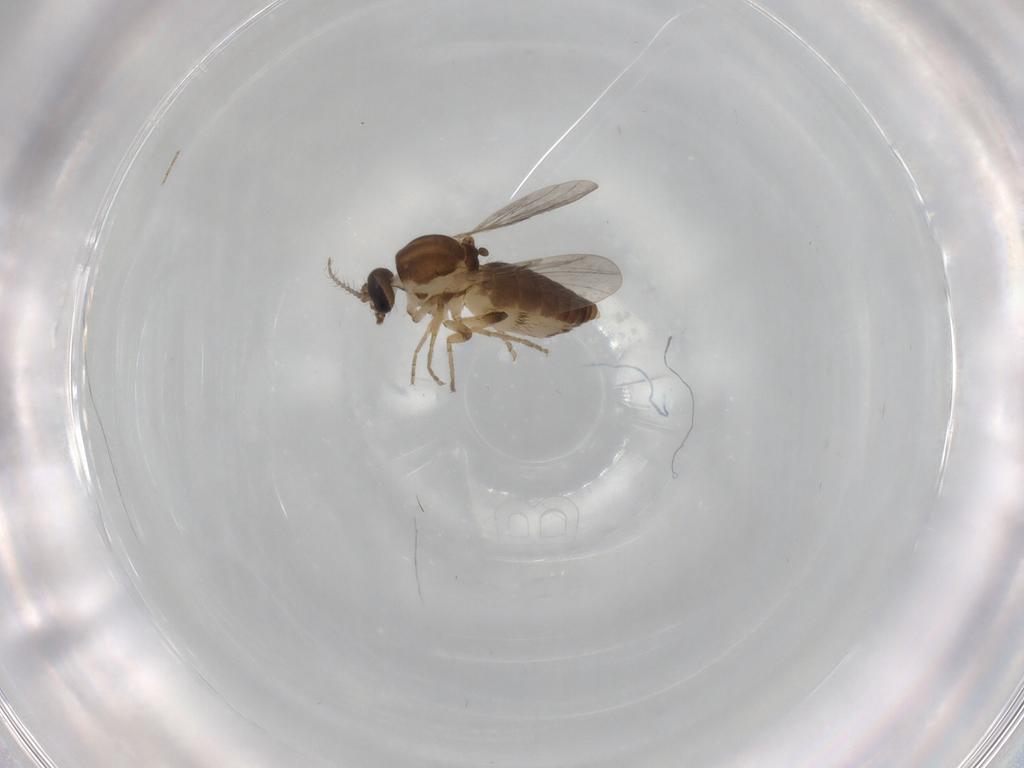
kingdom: Animalia
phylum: Arthropoda
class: Insecta
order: Diptera
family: Ceratopogonidae
